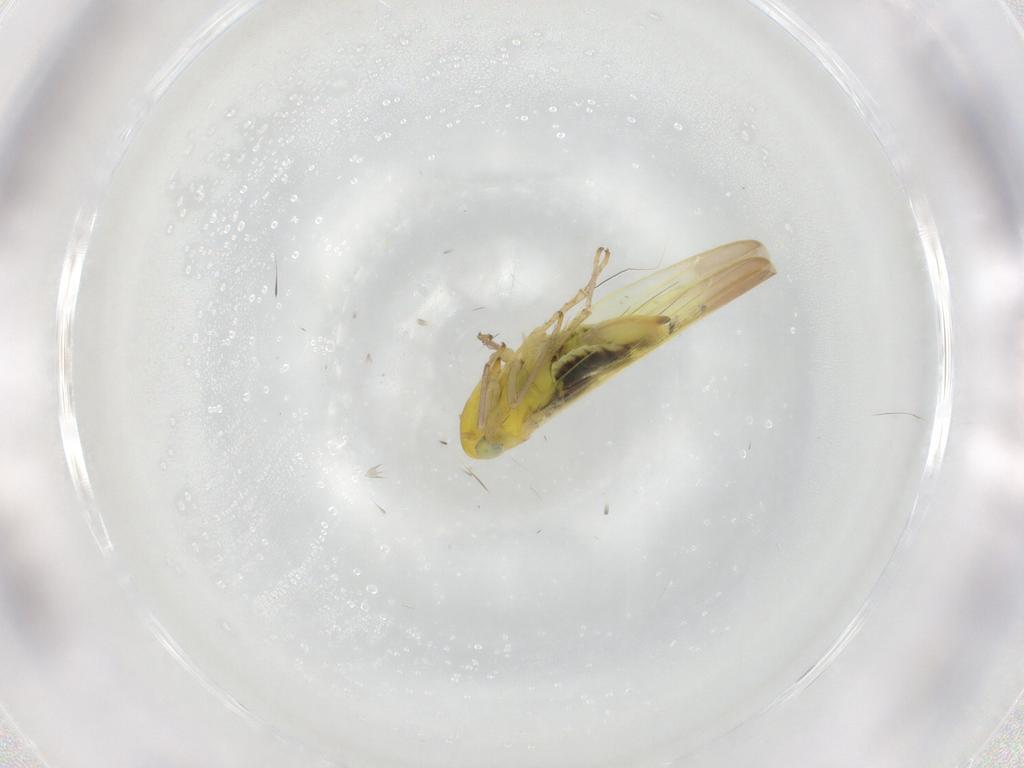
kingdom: Animalia
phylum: Arthropoda
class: Insecta
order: Hemiptera
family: Cicadellidae
